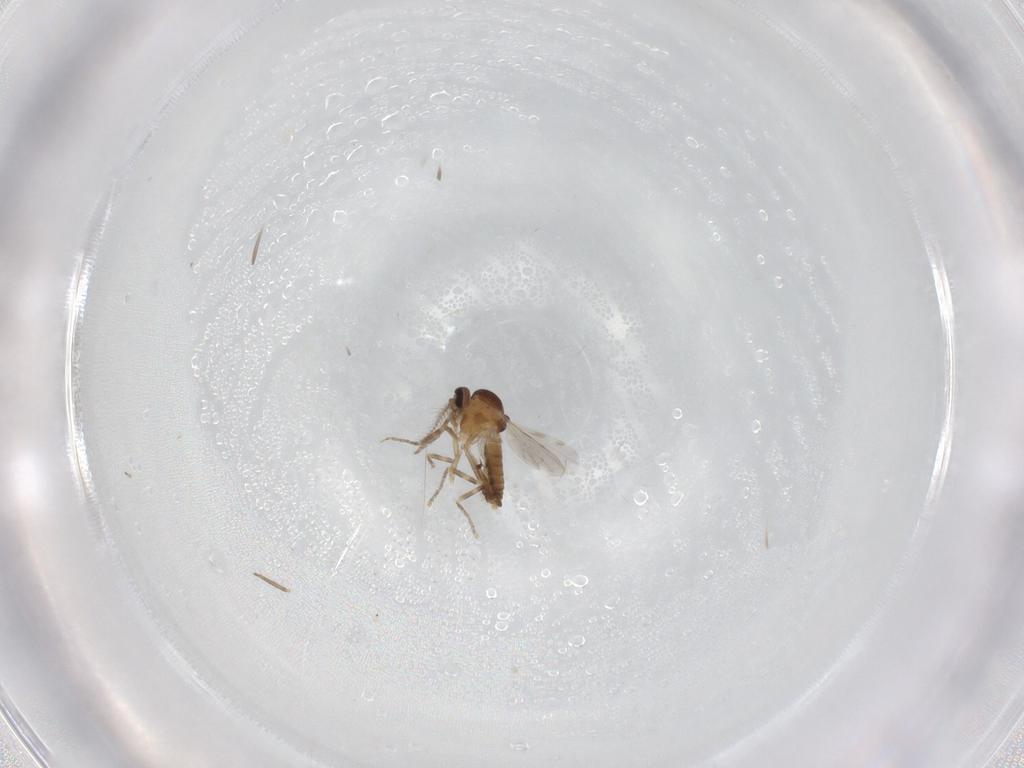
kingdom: Animalia
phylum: Arthropoda
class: Insecta
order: Diptera
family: Ceratopogonidae
